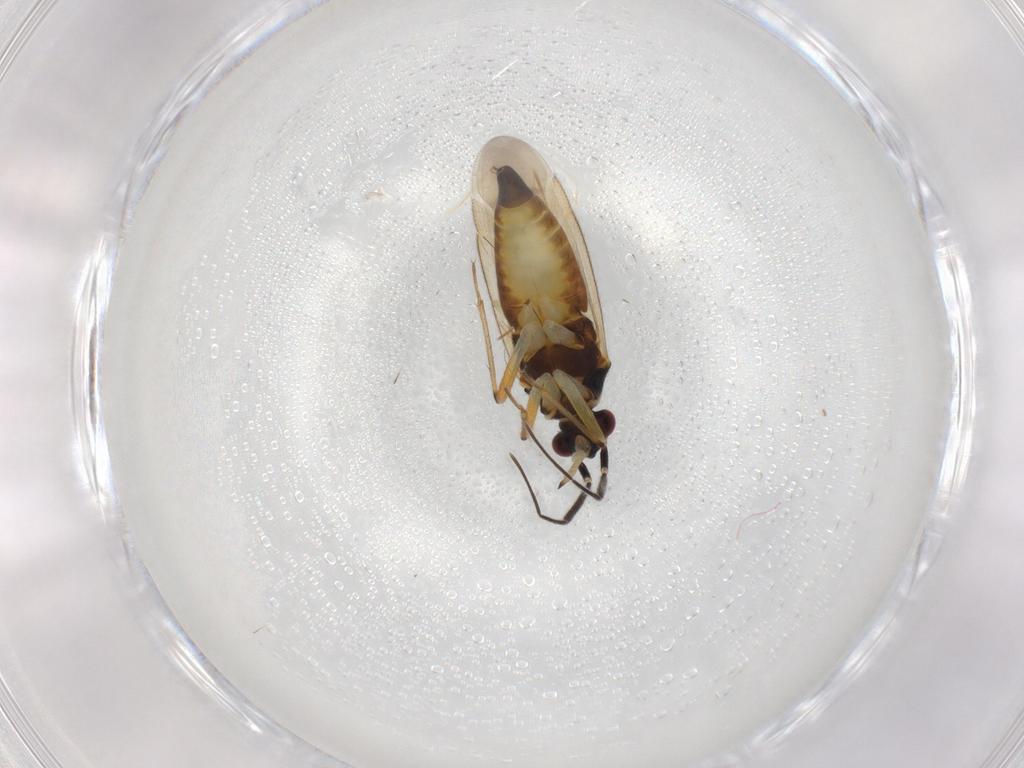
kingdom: Animalia
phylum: Arthropoda
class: Insecta
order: Hemiptera
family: Miridae
